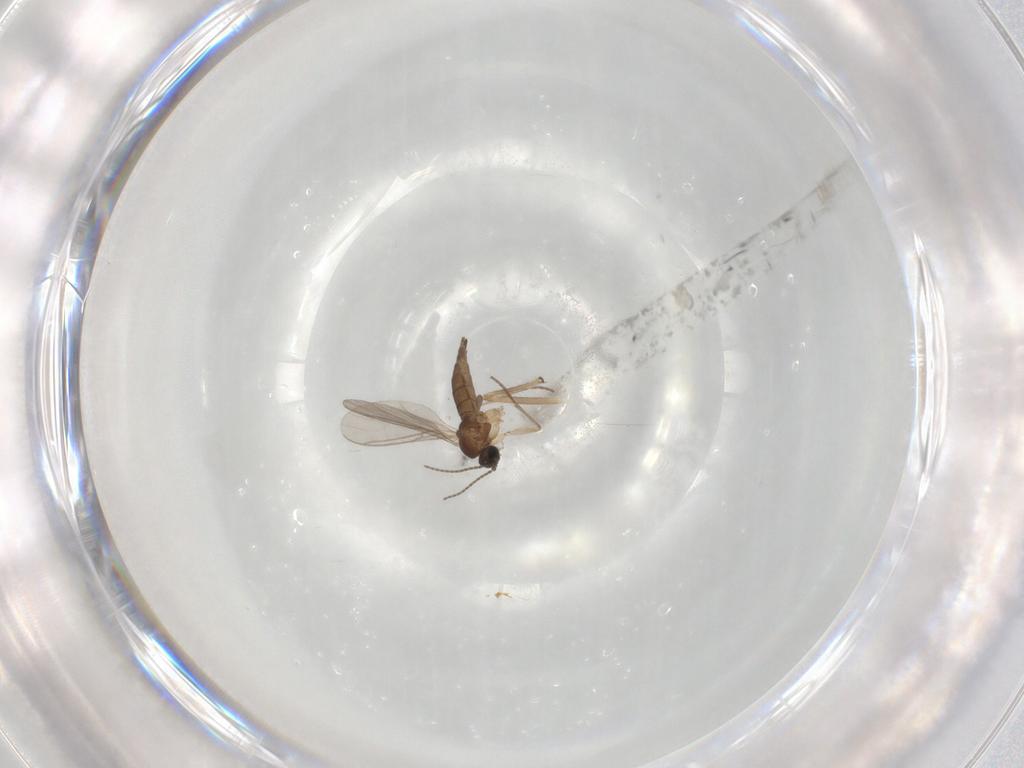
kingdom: Animalia
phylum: Arthropoda
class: Insecta
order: Diptera
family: Sciaridae
